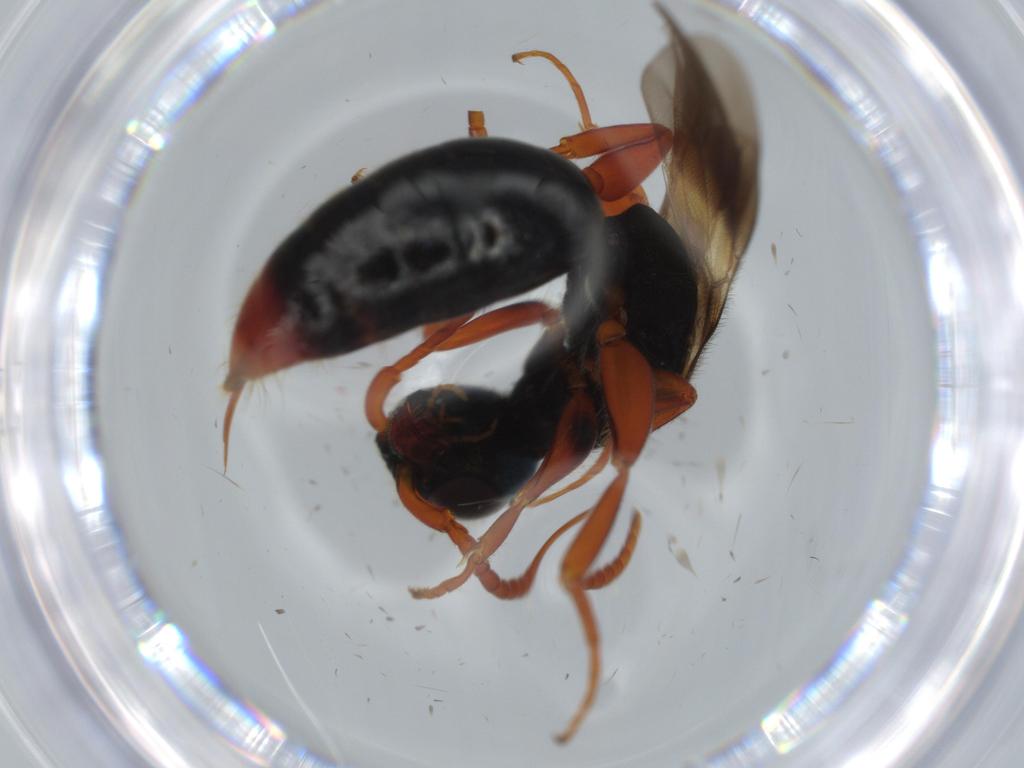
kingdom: Animalia
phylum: Arthropoda
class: Insecta
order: Hymenoptera
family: Bethylidae
